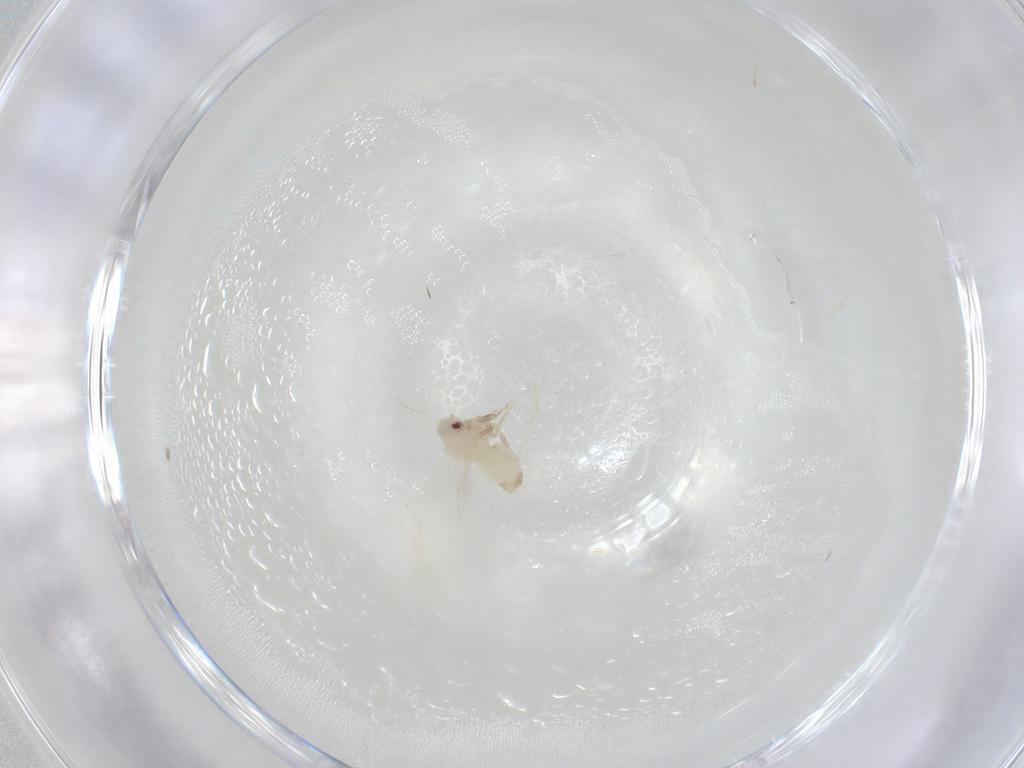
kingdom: Animalia
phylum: Arthropoda
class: Insecta
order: Hemiptera
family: Aleyrodidae
